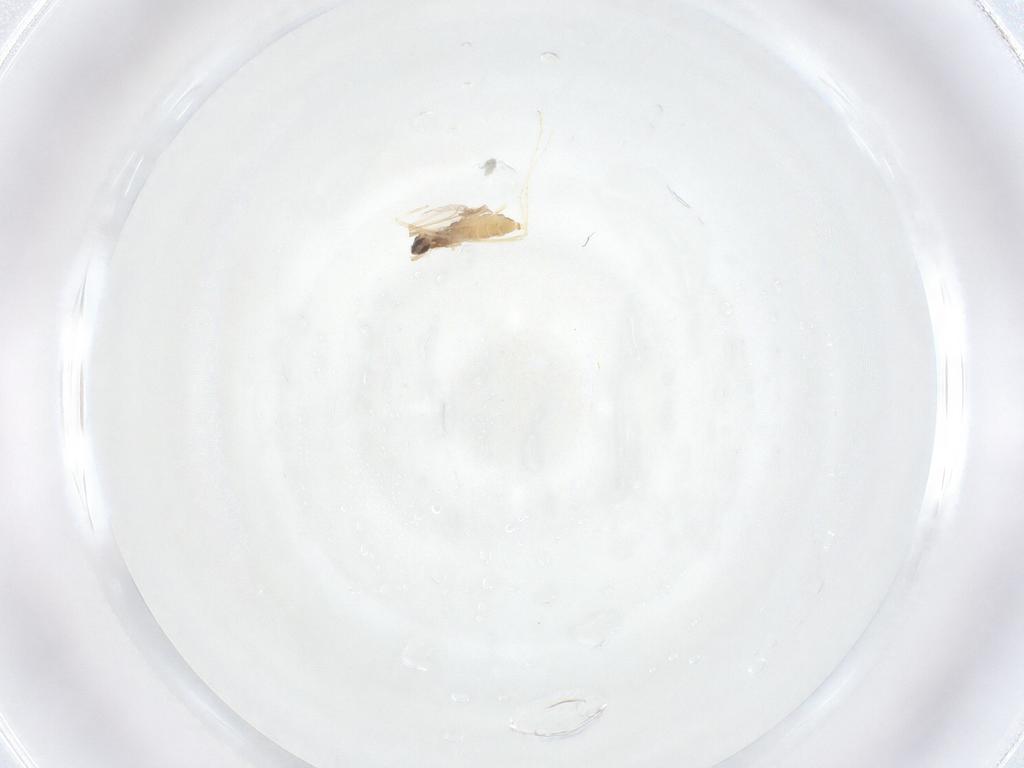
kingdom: Animalia
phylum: Arthropoda
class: Insecta
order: Diptera
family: Cecidomyiidae
